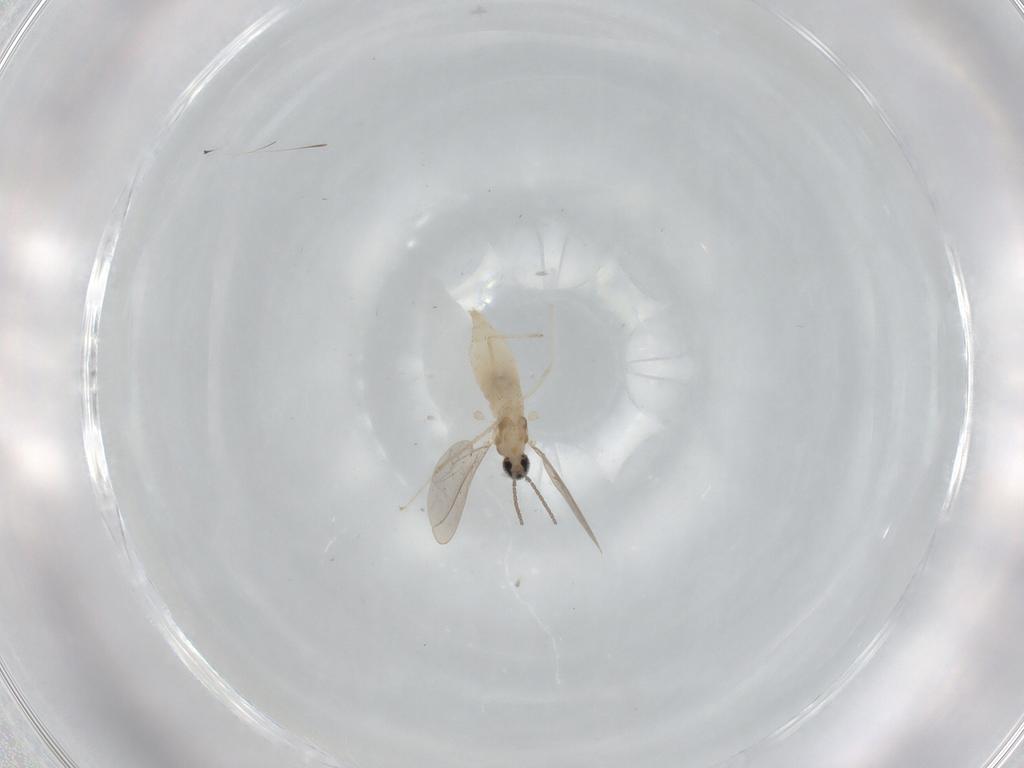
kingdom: Animalia
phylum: Arthropoda
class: Insecta
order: Diptera
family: Cecidomyiidae
